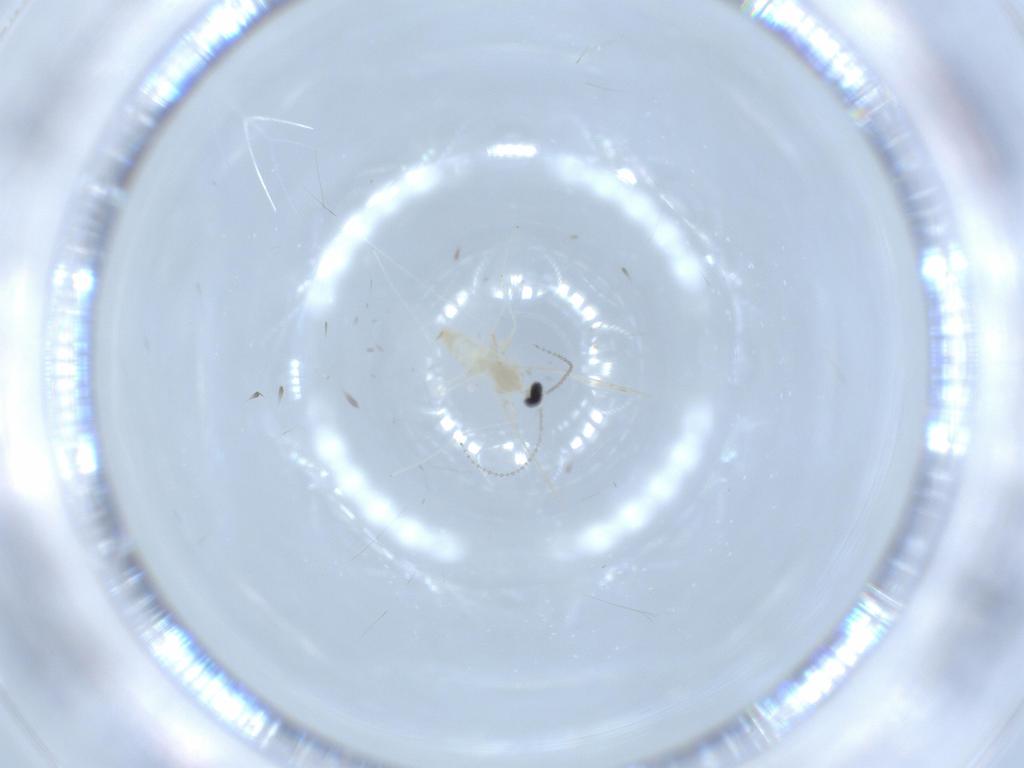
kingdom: Animalia
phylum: Arthropoda
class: Insecta
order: Diptera
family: Cecidomyiidae
